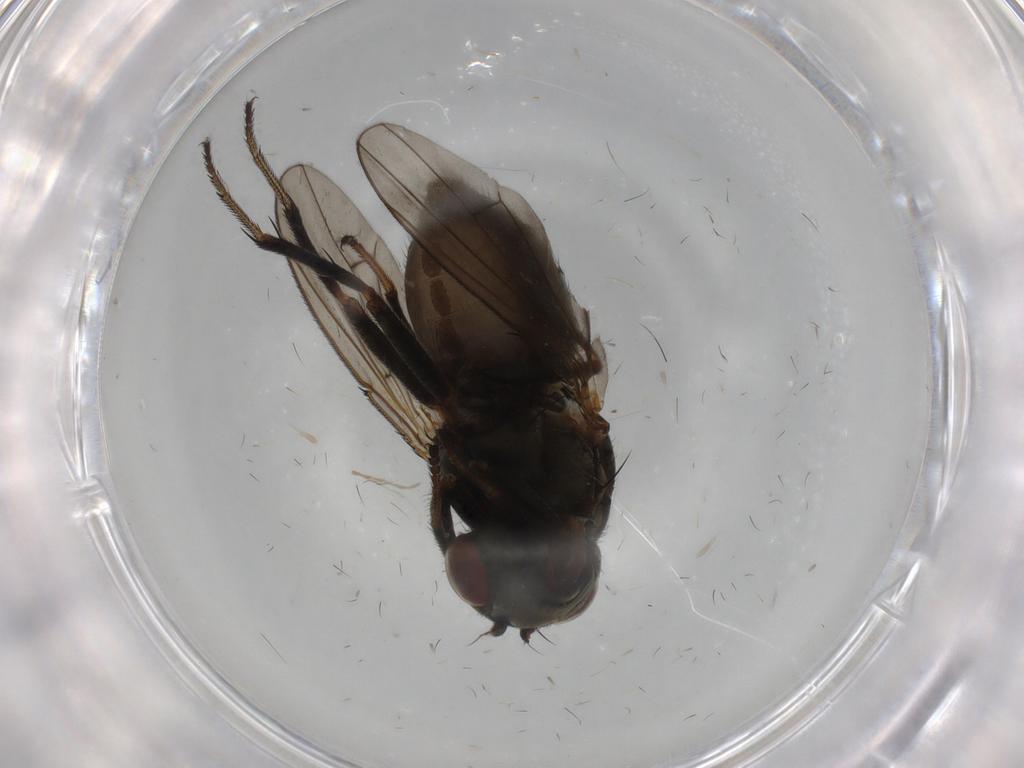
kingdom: Animalia
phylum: Arthropoda
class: Insecta
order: Diptera
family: Ephydridae
